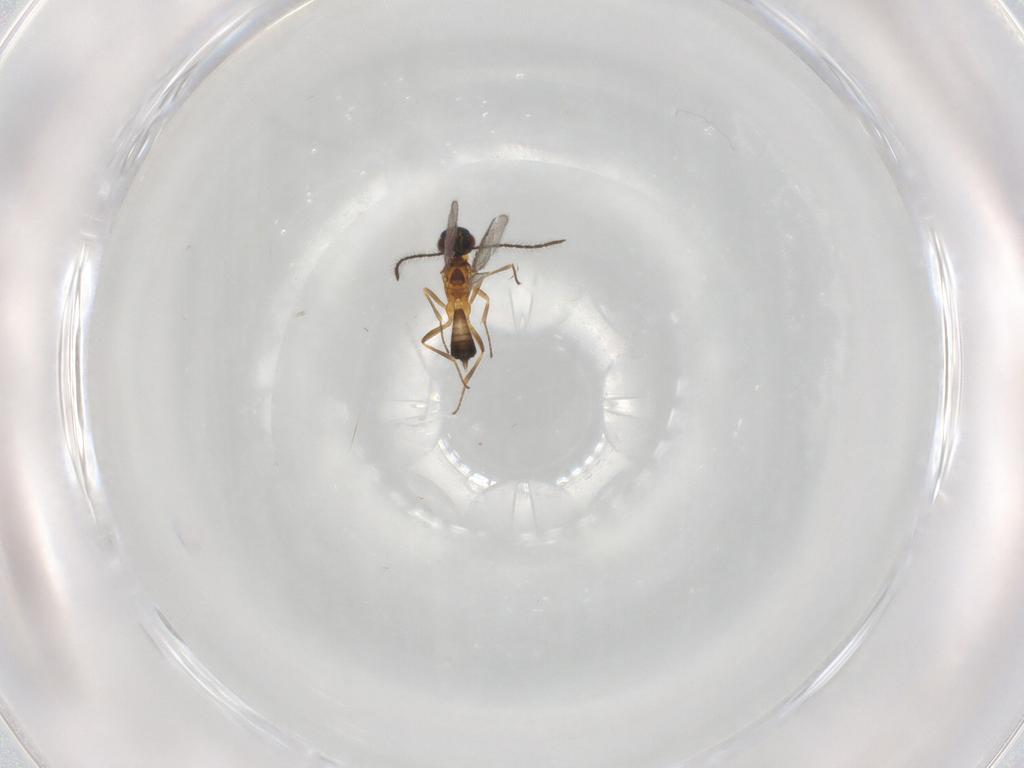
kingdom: Animalia
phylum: Arthropoda
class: Insecta
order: Hymenoptera
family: Eupelmidae
